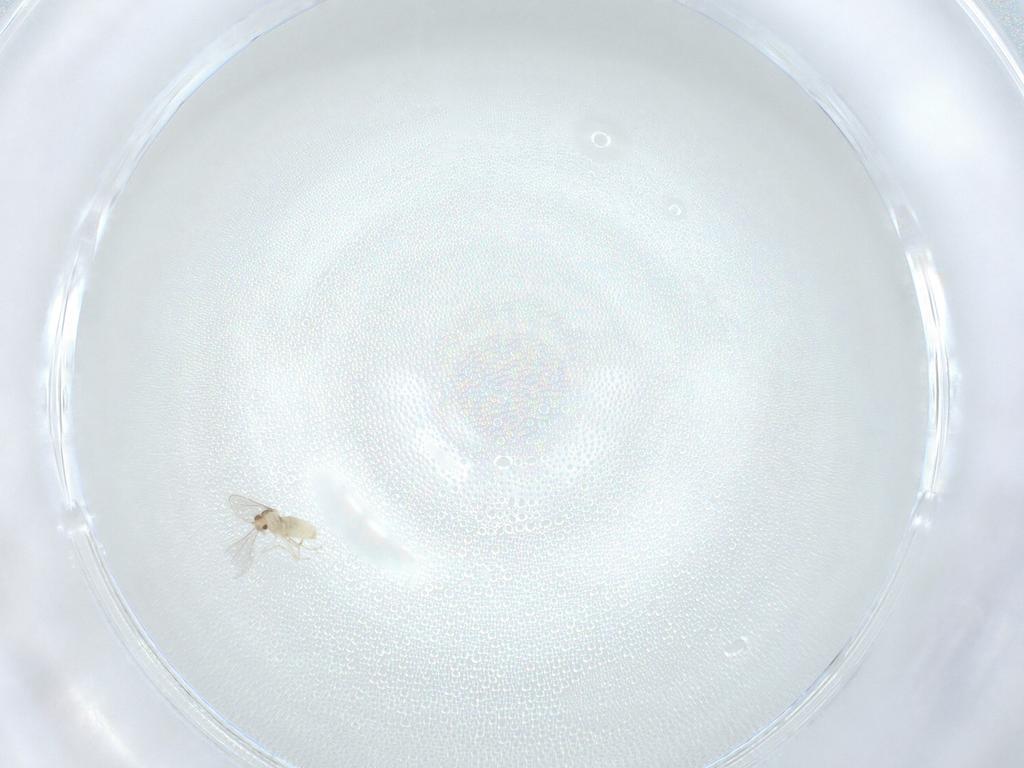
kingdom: Animalia
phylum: Arthropoda
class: Insecta
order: Diptera
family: Cecidomyiidae
